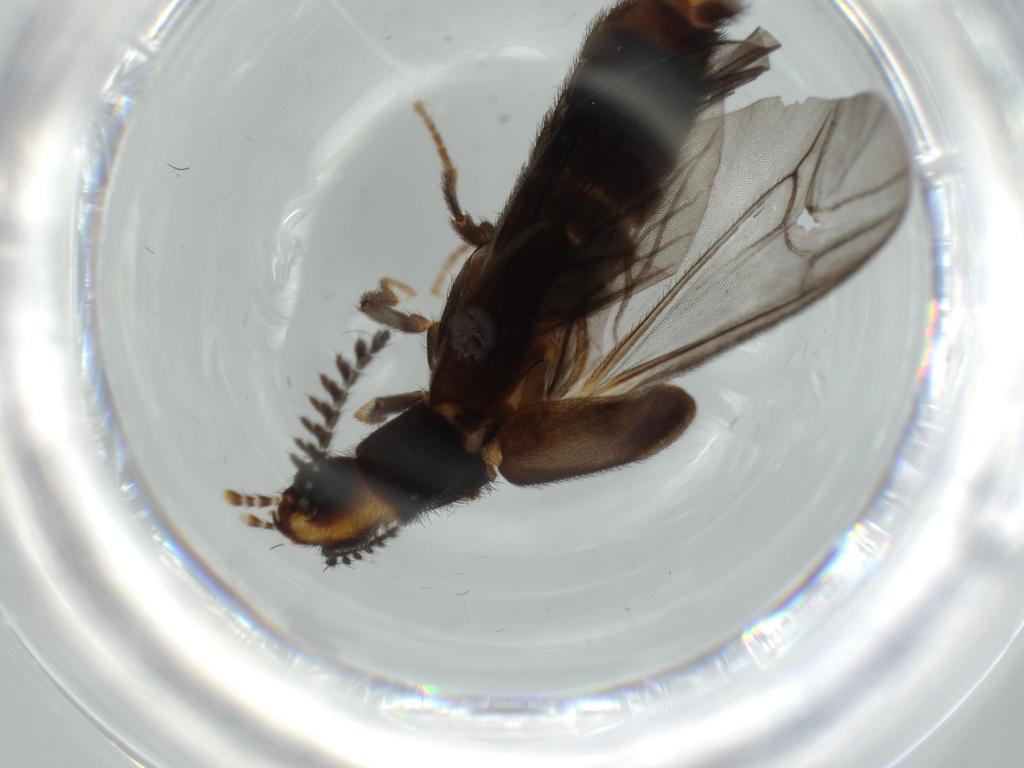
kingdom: Animalia
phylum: Arthropoda
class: Insecta
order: Coleoptera
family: Phengodidae
